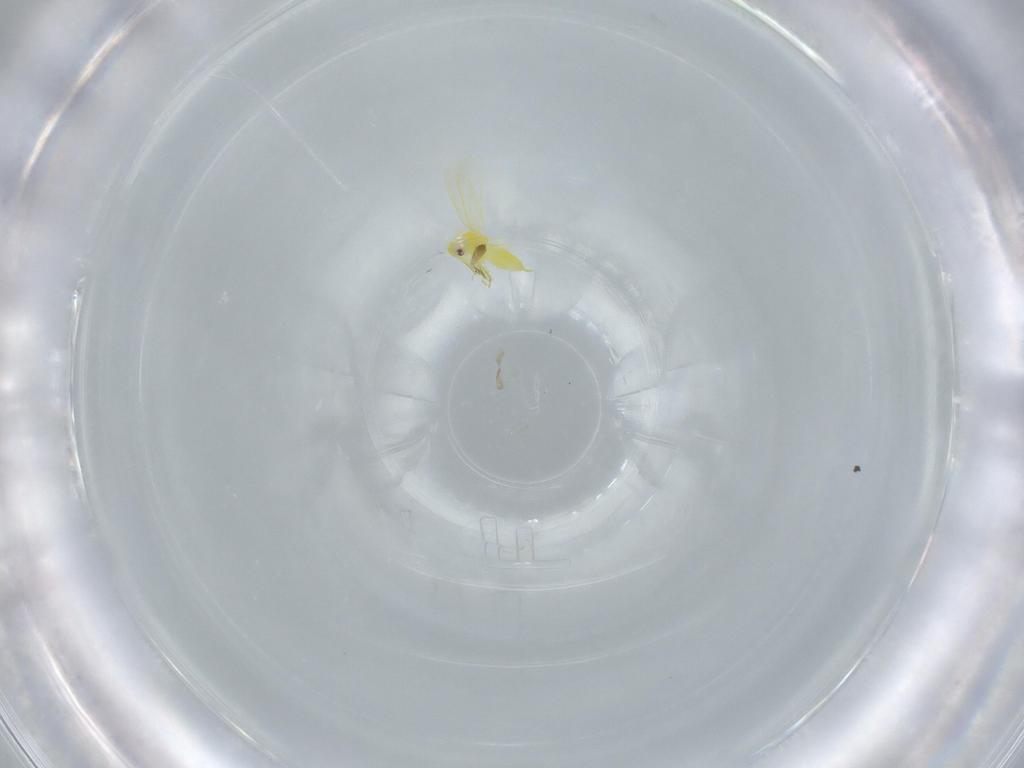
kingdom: Animalia
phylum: Arthropoda
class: Insecta
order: Hemiptera
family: Aleyrodidae
